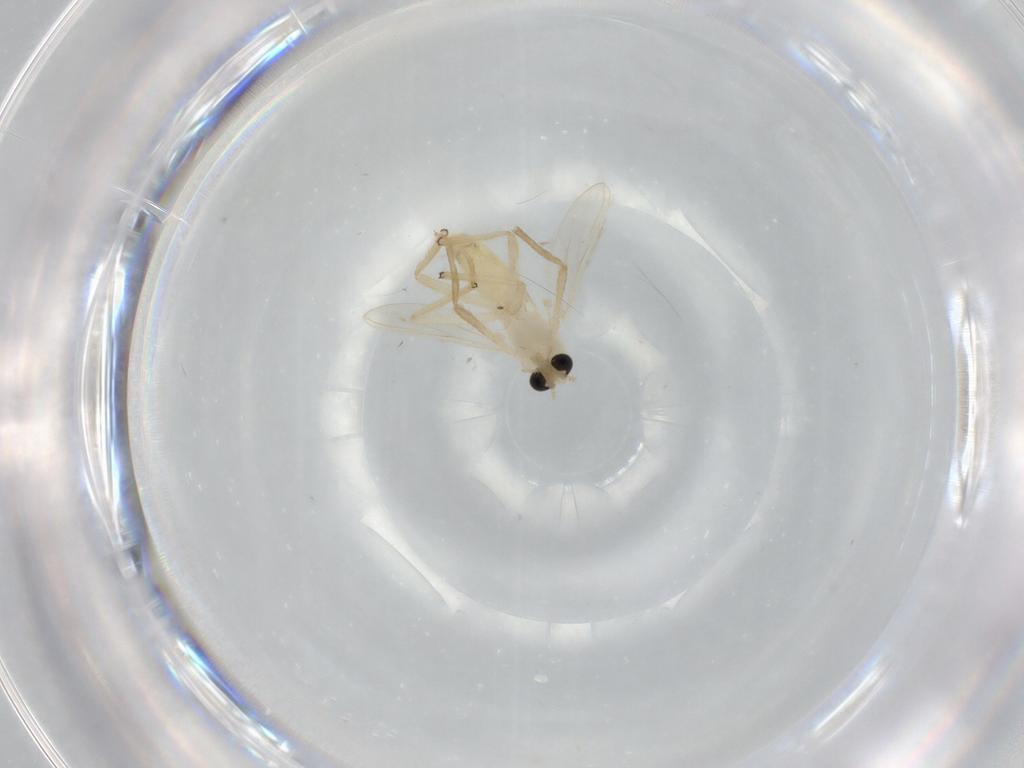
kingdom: Animalia
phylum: Arthropoda
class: Insecta
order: Diptera
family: Chironomidae
